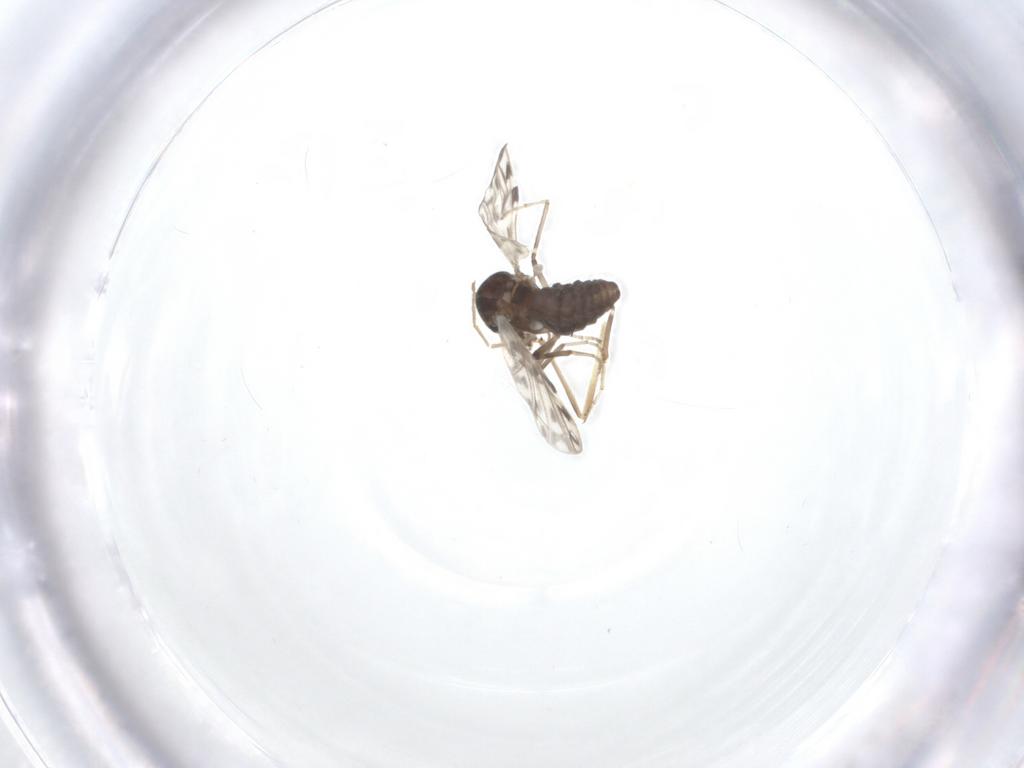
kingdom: Animalia
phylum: Arthropoda
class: Insecta
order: Diptera
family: Ceratopogonidae
